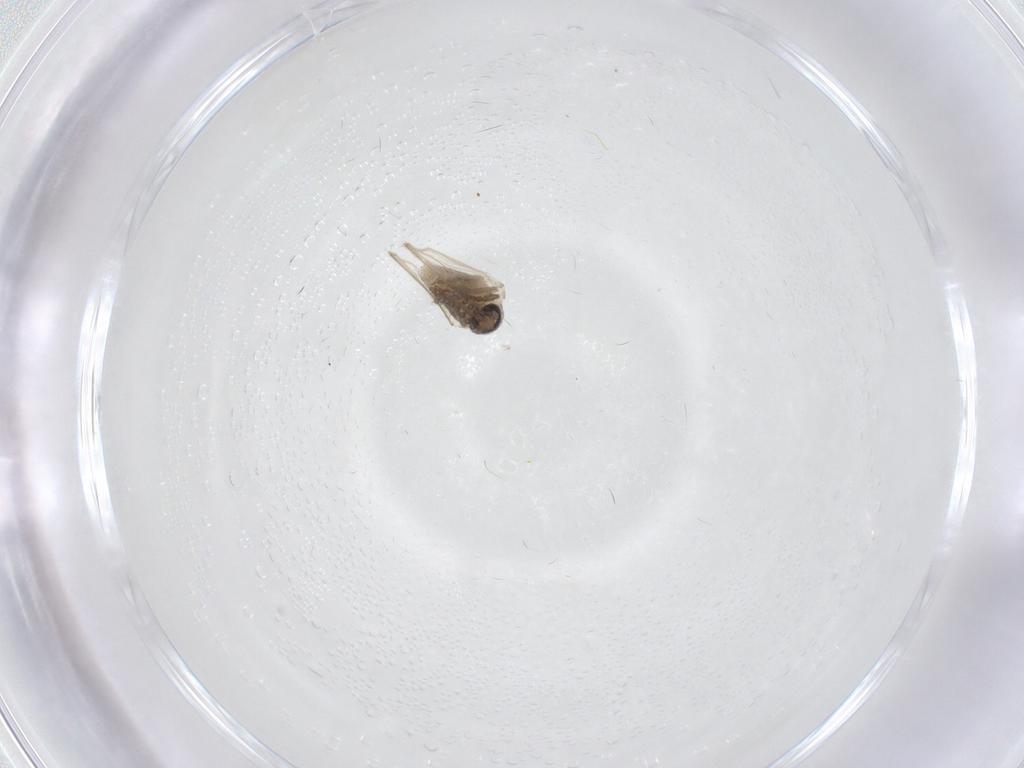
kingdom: Animalia
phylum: Arthropoda
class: Insecta
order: Diptera
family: Psychodidae
